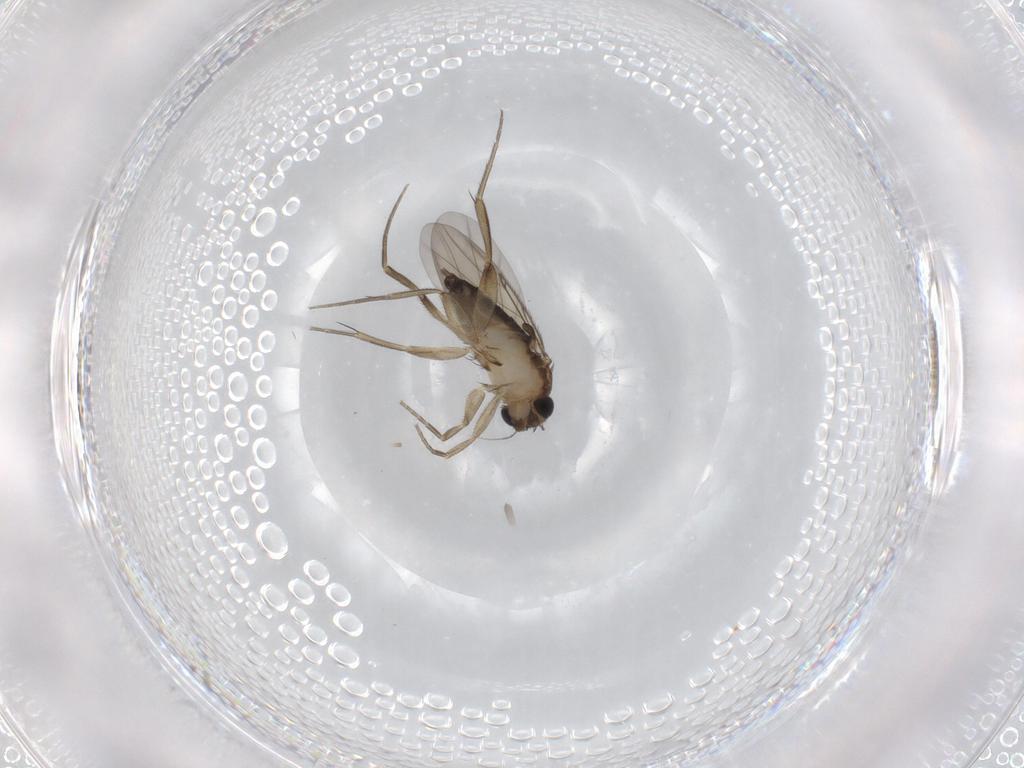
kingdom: Animalia
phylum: Arthropoda
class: Insecta
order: Diptera
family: Phoridae
